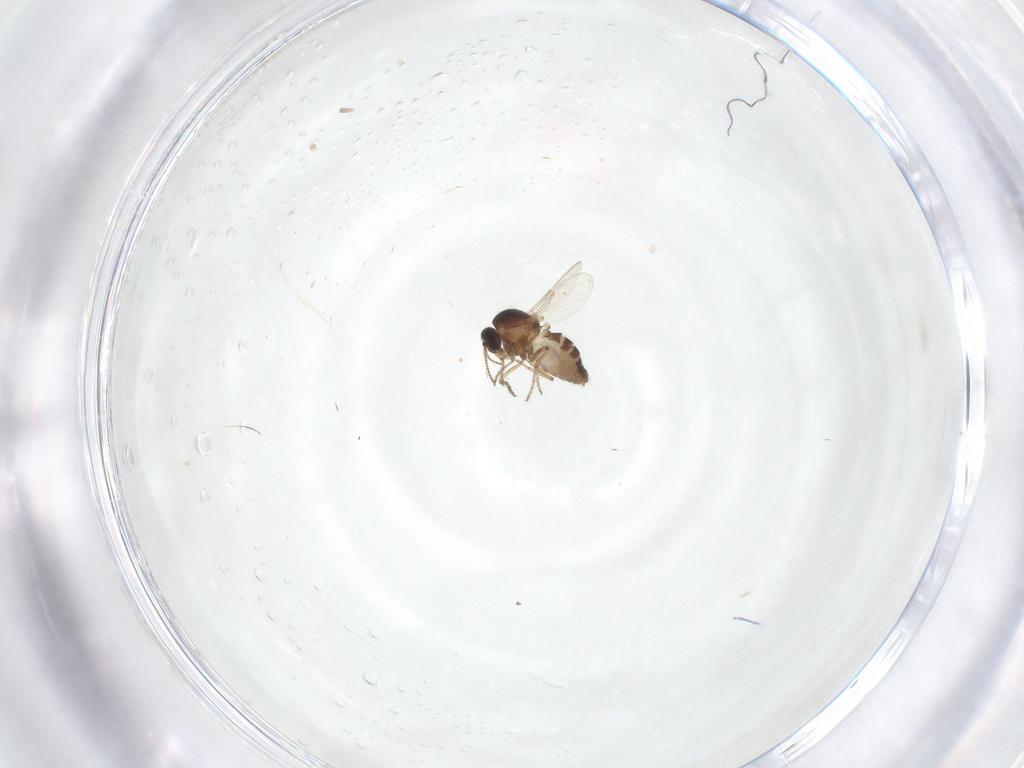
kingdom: Animalia
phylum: Arthropoda
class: Insecta
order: Diptera
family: Ceratopogonidae
